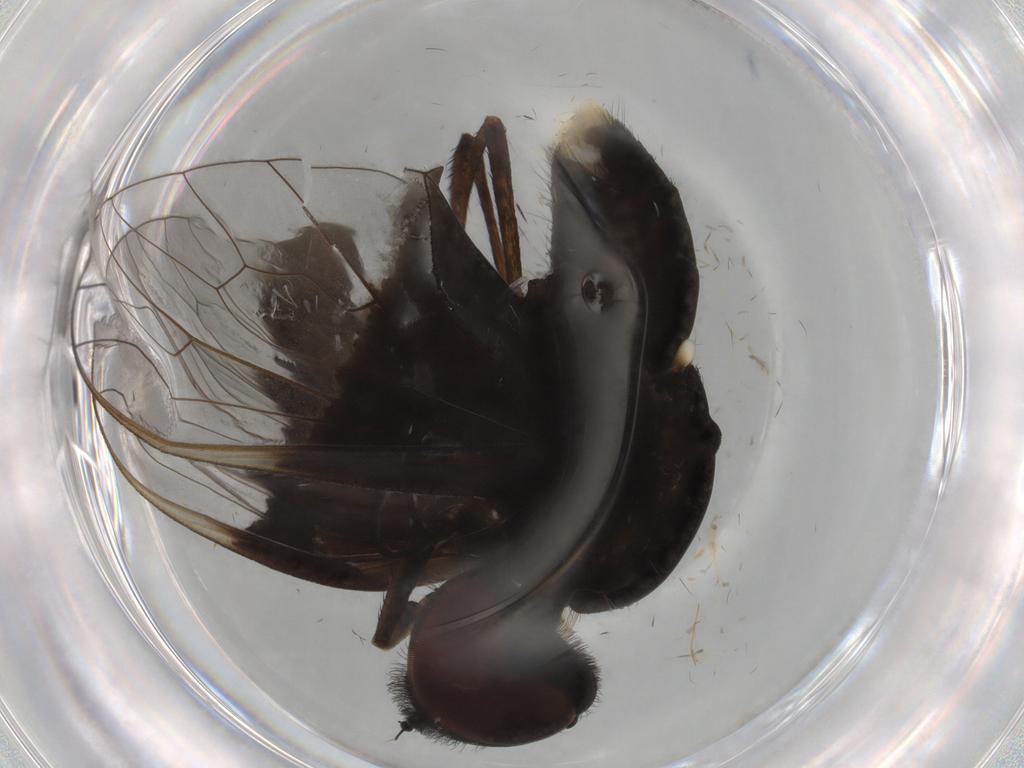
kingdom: Animalia
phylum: Arthropoda
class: Insecta
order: Diptera
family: Bombyliidae
